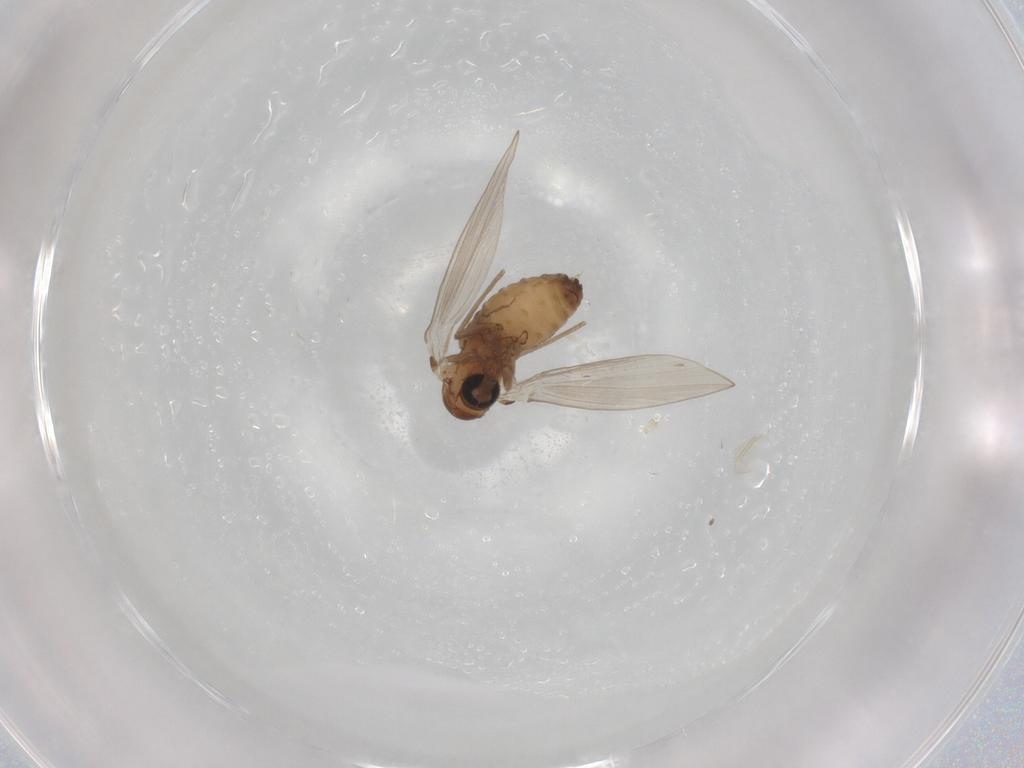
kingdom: Animalia
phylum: Arthropoda
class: Insecta
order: Diptera
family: Psychodidae
